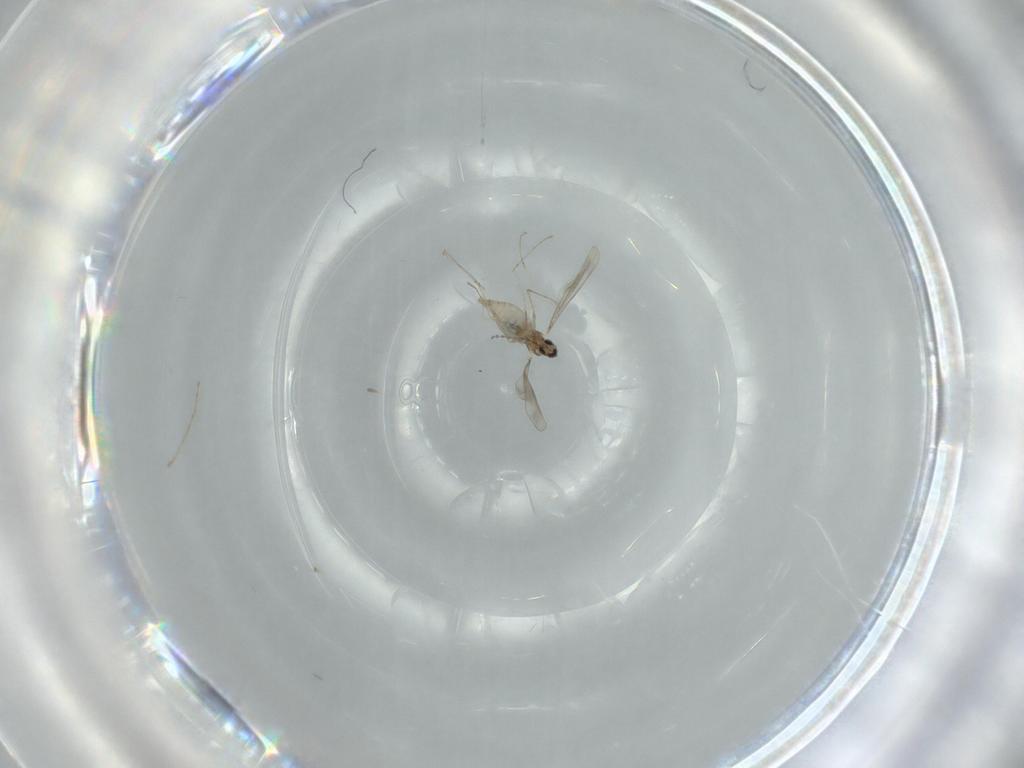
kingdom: Animalia
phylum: Arthropoda
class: Insecta
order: Diptera
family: Cecidomyiidae
